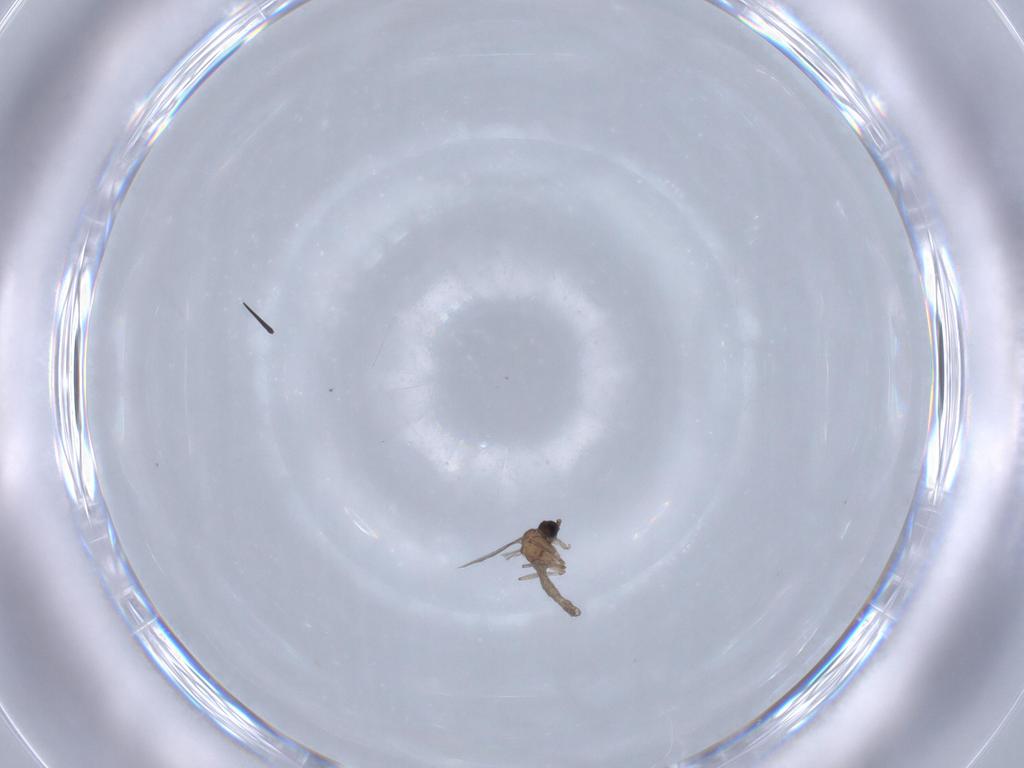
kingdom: Animalia
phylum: Arthropoda
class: Insecta
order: Diptera
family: Sciaridae
